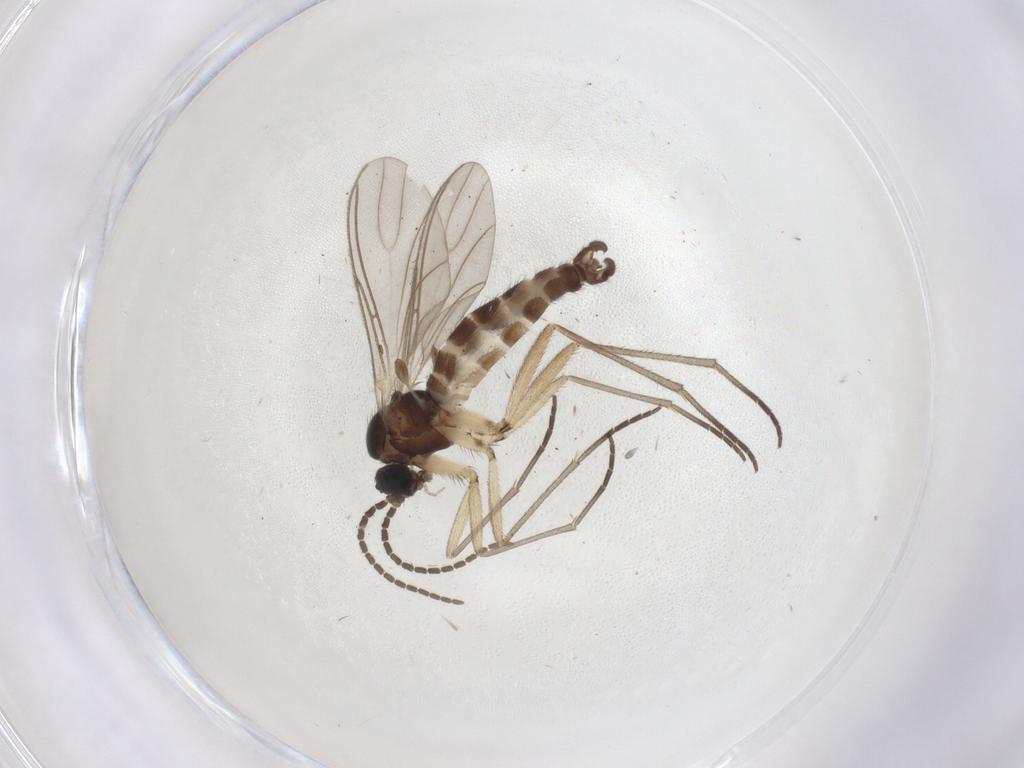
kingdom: Animalia
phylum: Arthropoda
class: Insecta
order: Diptera
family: Sciaridae
